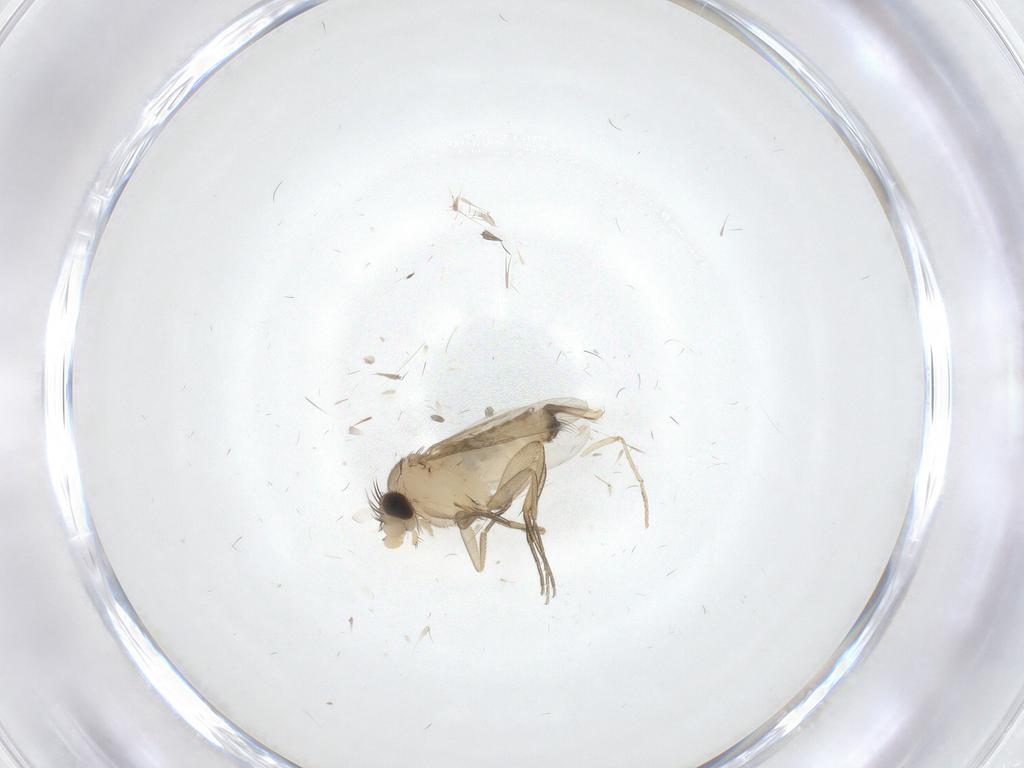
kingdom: Animalia
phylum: Arthropoda
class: Insecta
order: Diptera
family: Phoridae
